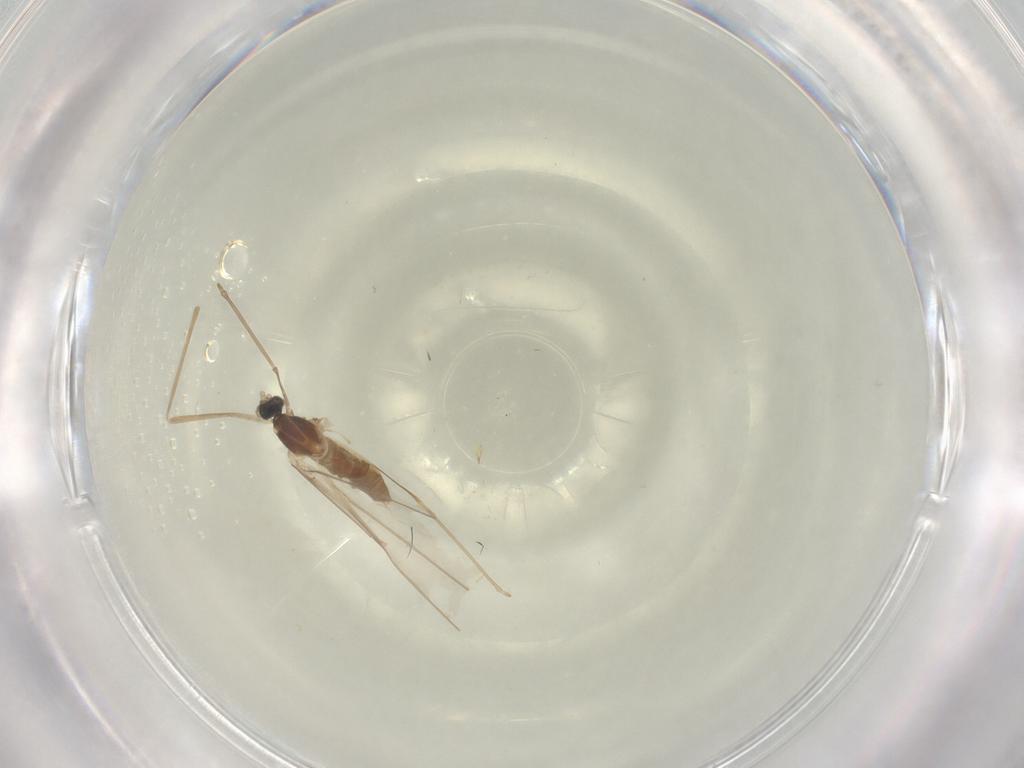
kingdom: Animalia
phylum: Arthropoda
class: Insecta
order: Diptera
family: Cecidomyiidae
